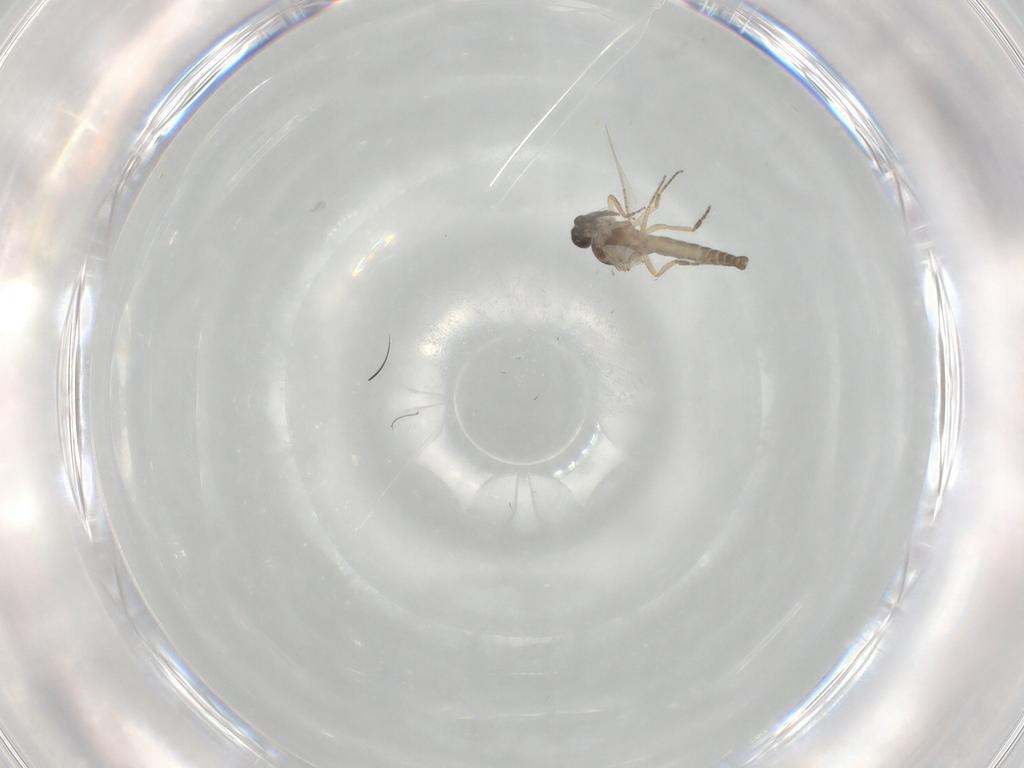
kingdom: Animalia
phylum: Arthropoda
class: Insecta
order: Diptera
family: Ceratopogonidae
